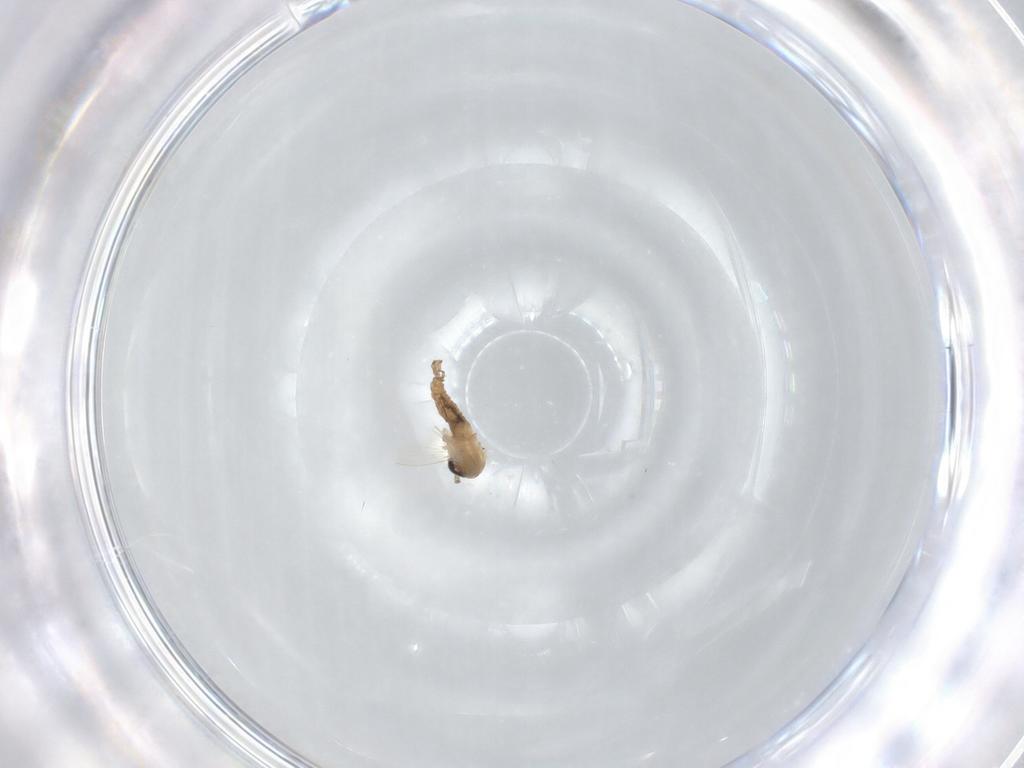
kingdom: Animalia
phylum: Arthropoda
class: Insecta
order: Diptera
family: Psychodidae
